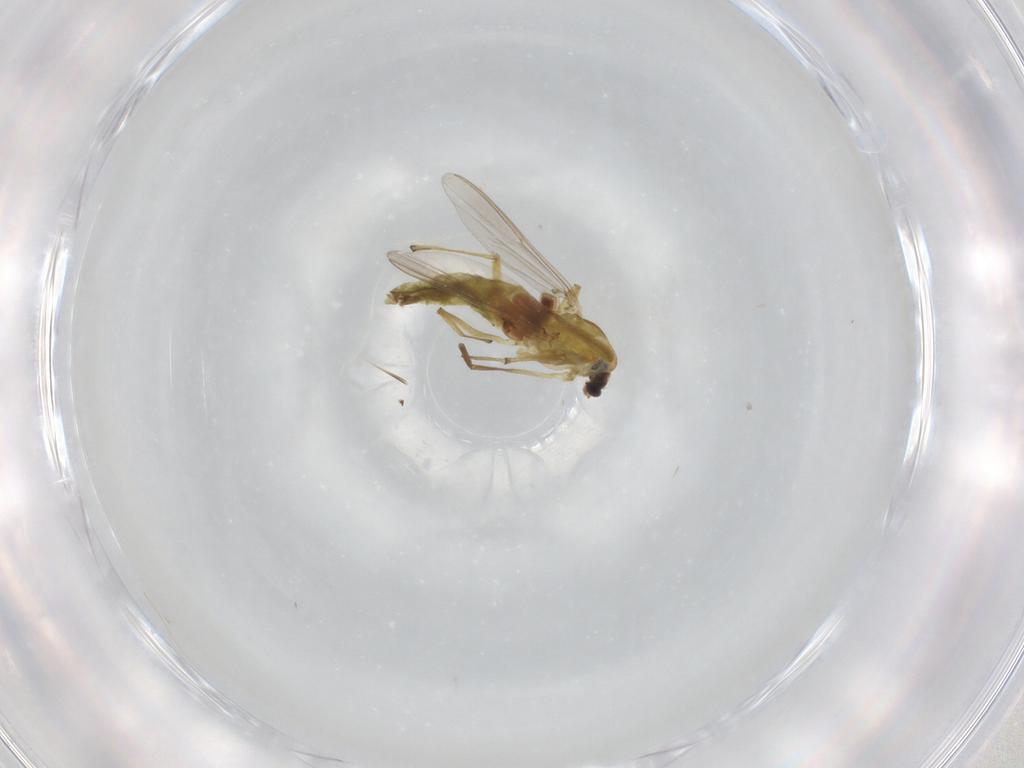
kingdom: Animalia
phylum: Arthropoda
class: Insecta
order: Diptera
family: Chironomidae
